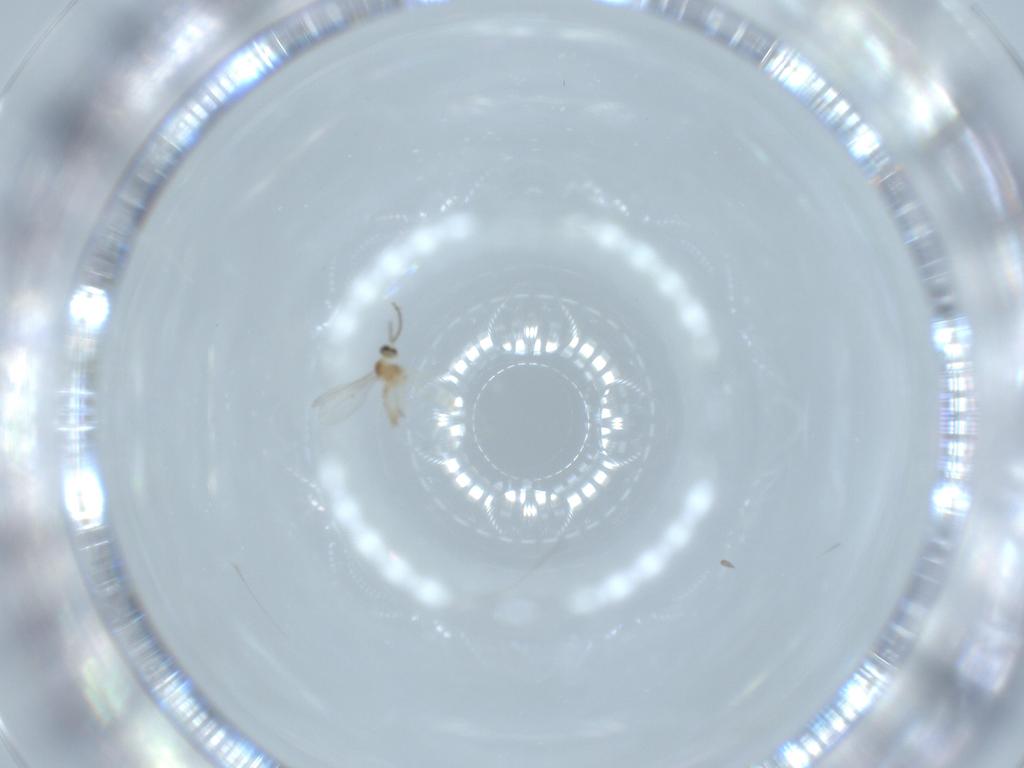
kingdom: Animalia
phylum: Arthropoda
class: Insecta
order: Diptera
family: Cecidomyiidae
